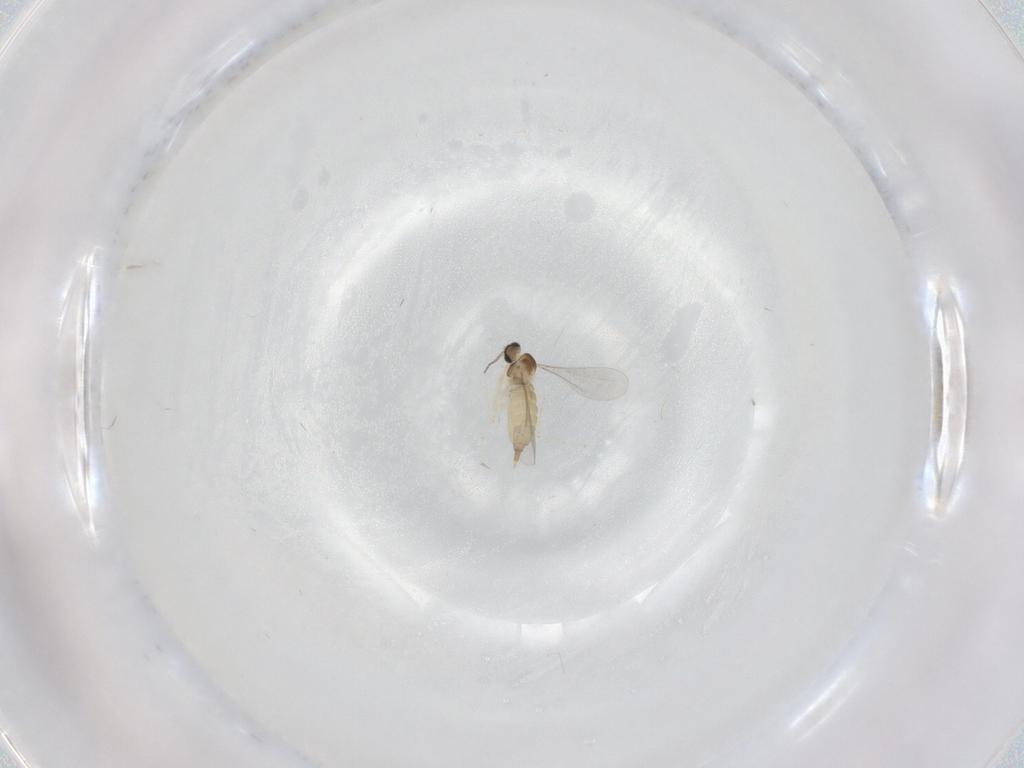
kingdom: Animalia
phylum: Arthropoda
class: Insecta
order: Diptera
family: Phoridae
